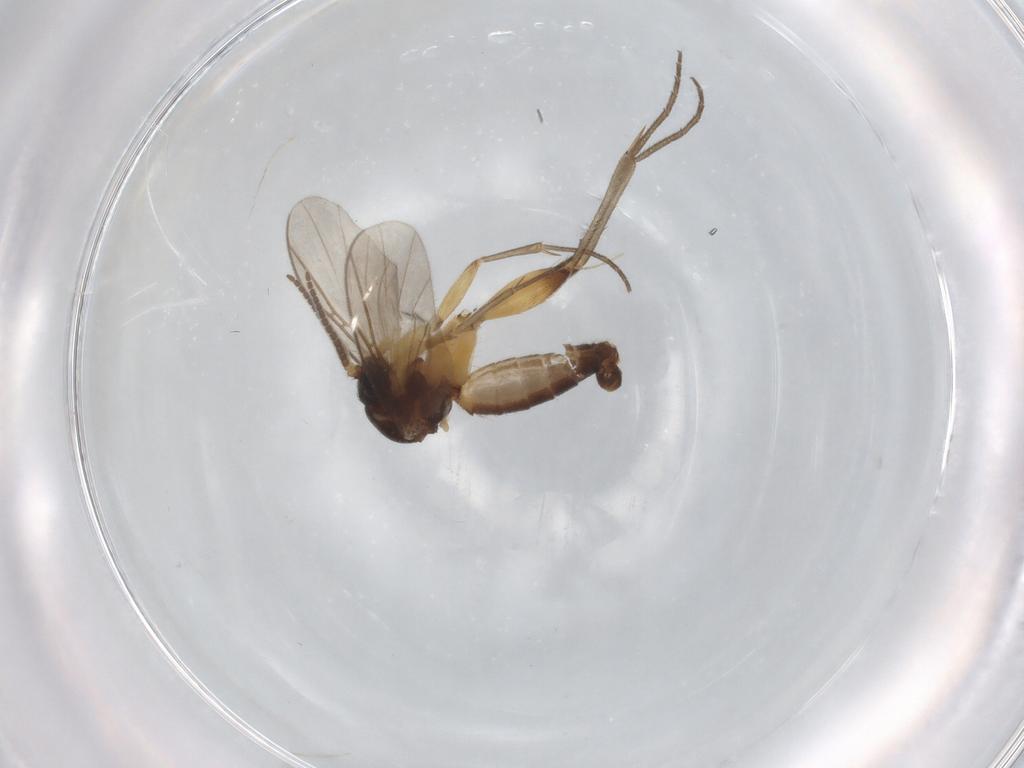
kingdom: Animalia
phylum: Arthropoda
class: Insecta
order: Diptera
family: Mycetophilidae
